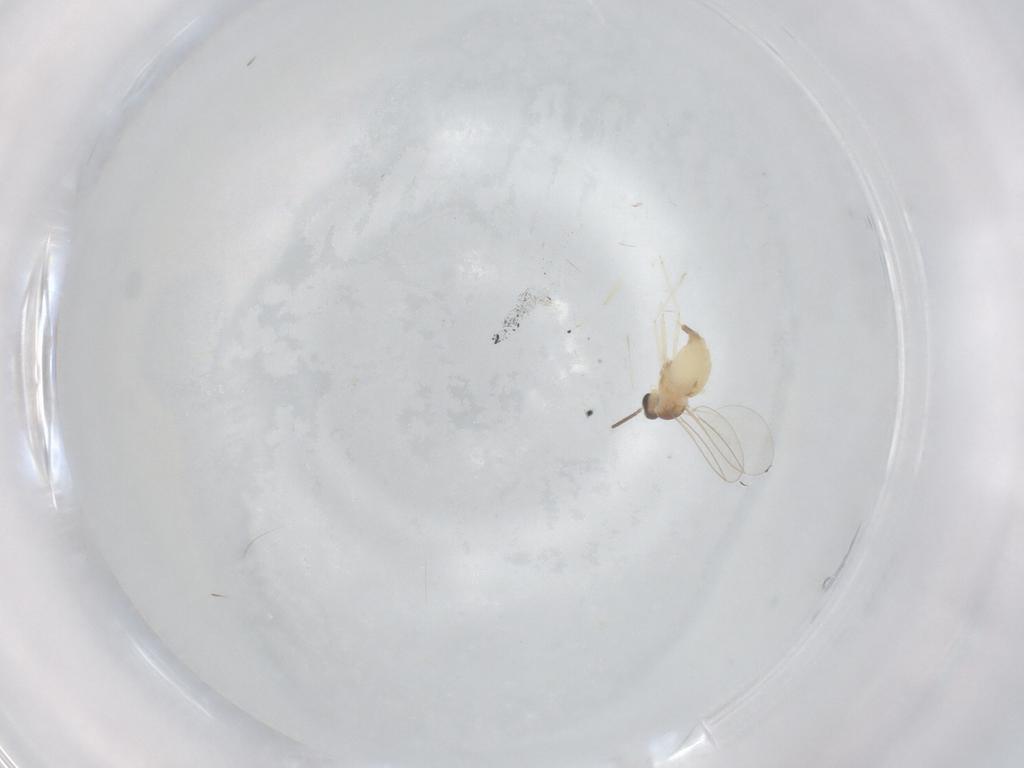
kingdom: Animalia
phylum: Arthropoda
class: Insecta
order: Diptera
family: Cecidomyiidae
